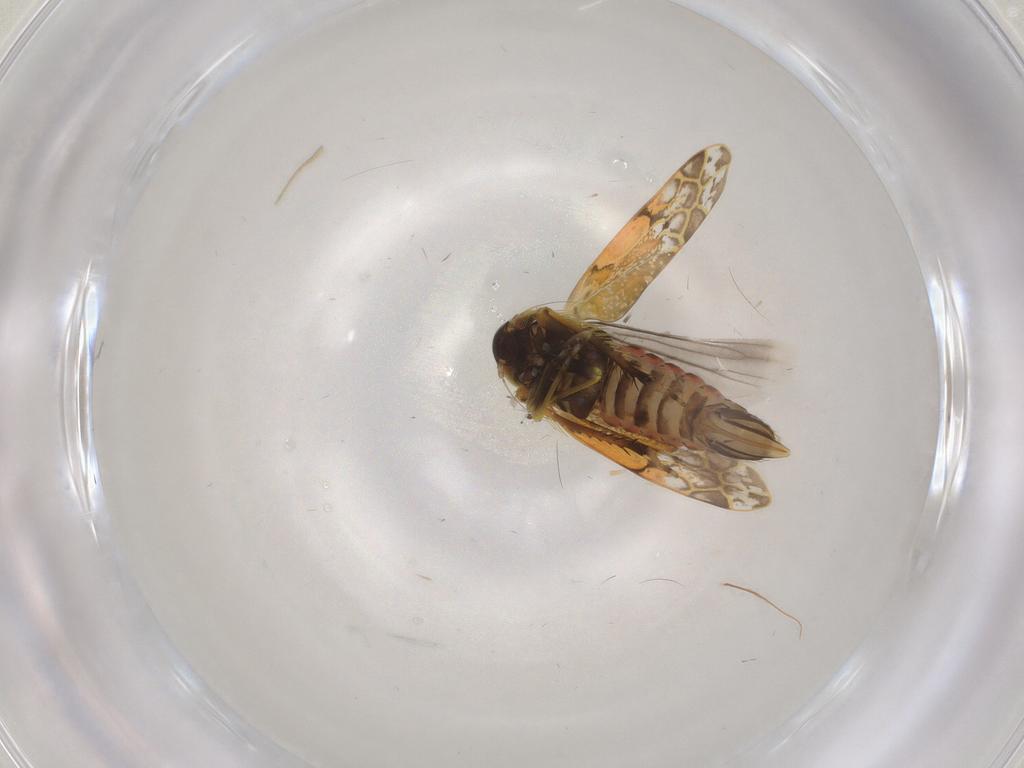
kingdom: Animalia
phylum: Arthropoda
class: Insecta
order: Hemiptera
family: Cicadellidae
